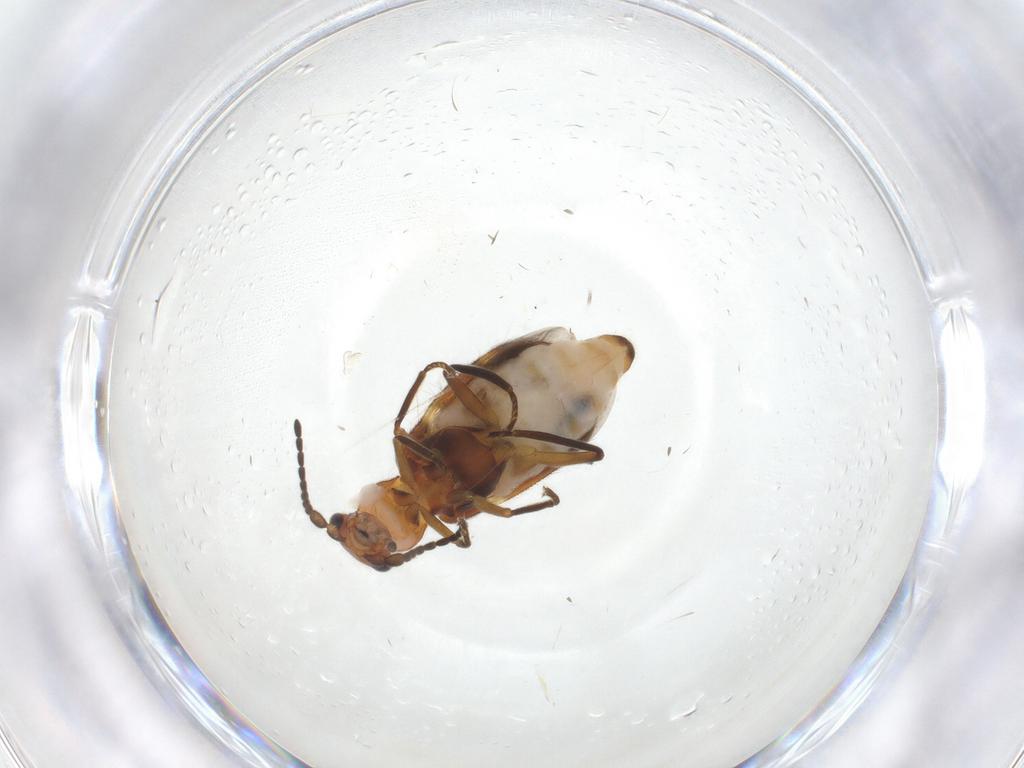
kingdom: Animalia
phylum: Arthropoda
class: Insecta
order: Coleoptera
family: Melyridae
